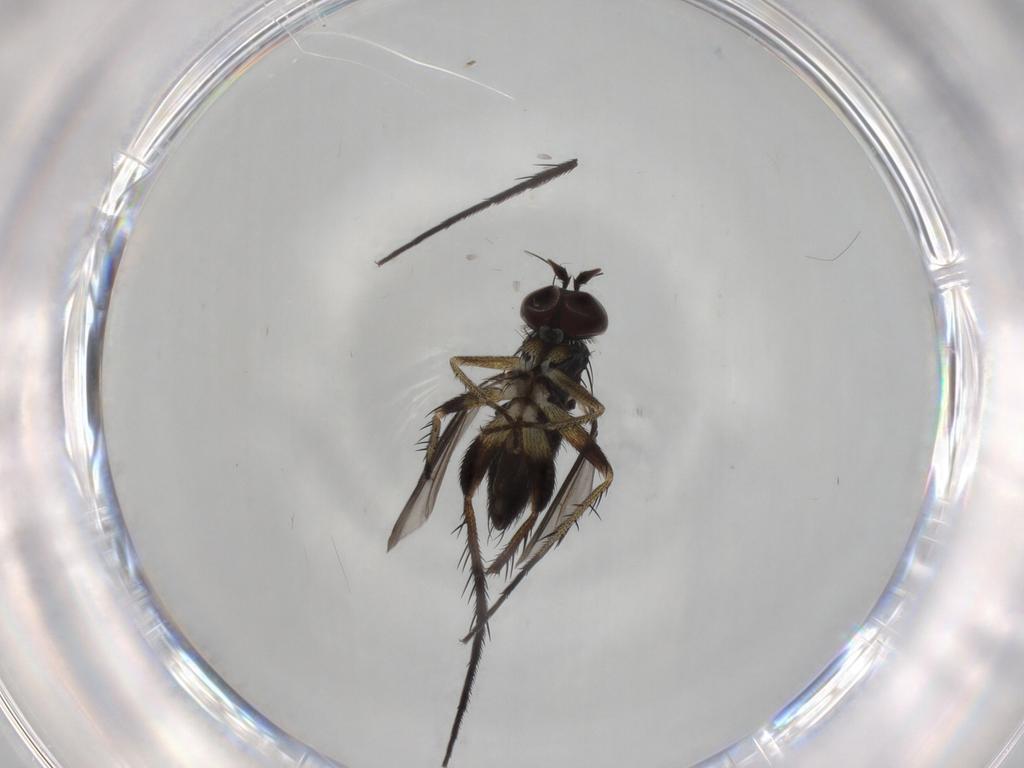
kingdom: Animalia
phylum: Arthropoda
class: Insecta
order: Diptera
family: Dolichopodidae
